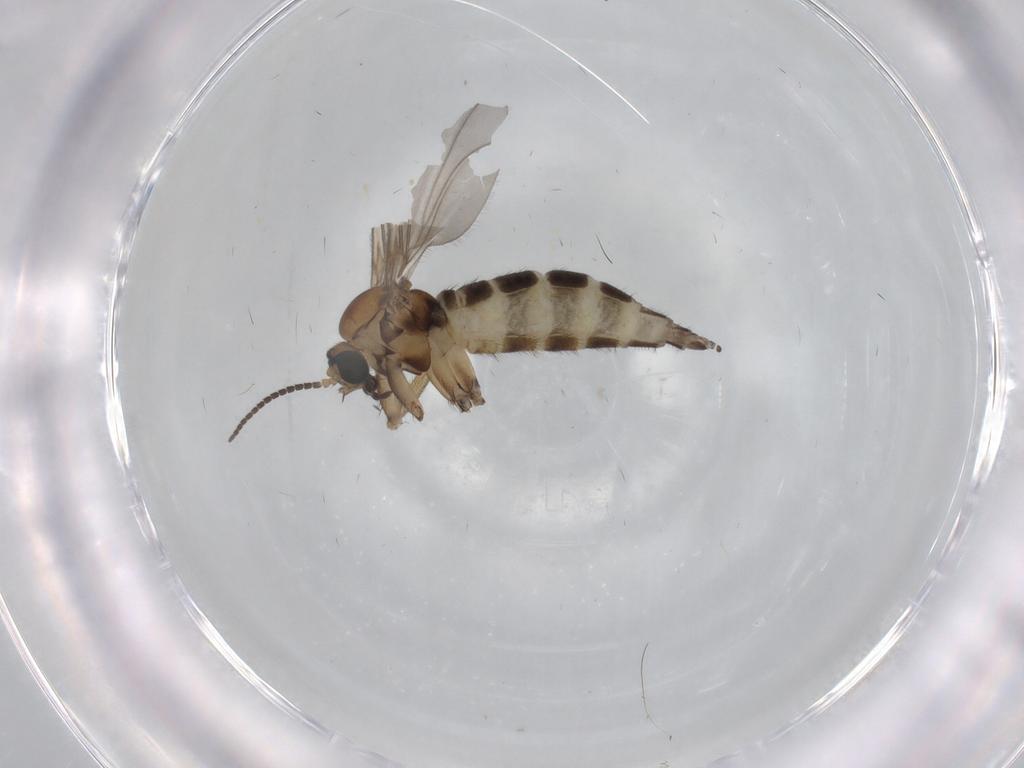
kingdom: Animalia
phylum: Arthropoda
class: Insecta
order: Diptera
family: Sciaridae
